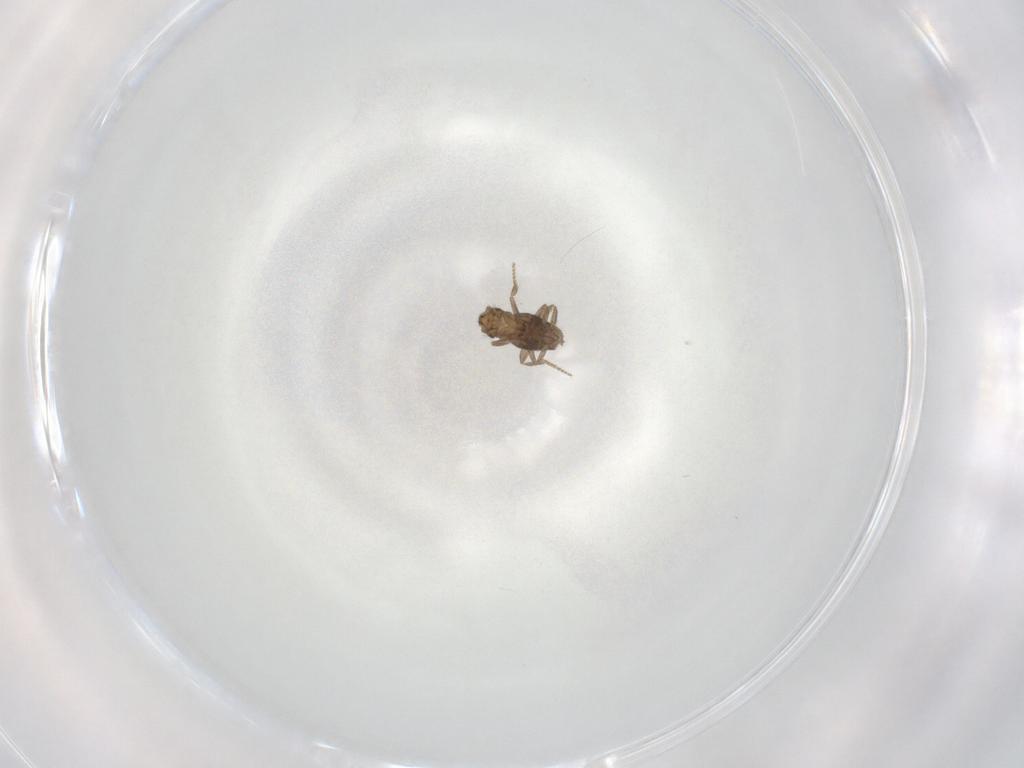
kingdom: Animalia
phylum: Arthropoda
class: Insecta
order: Diptera
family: Phoridae
